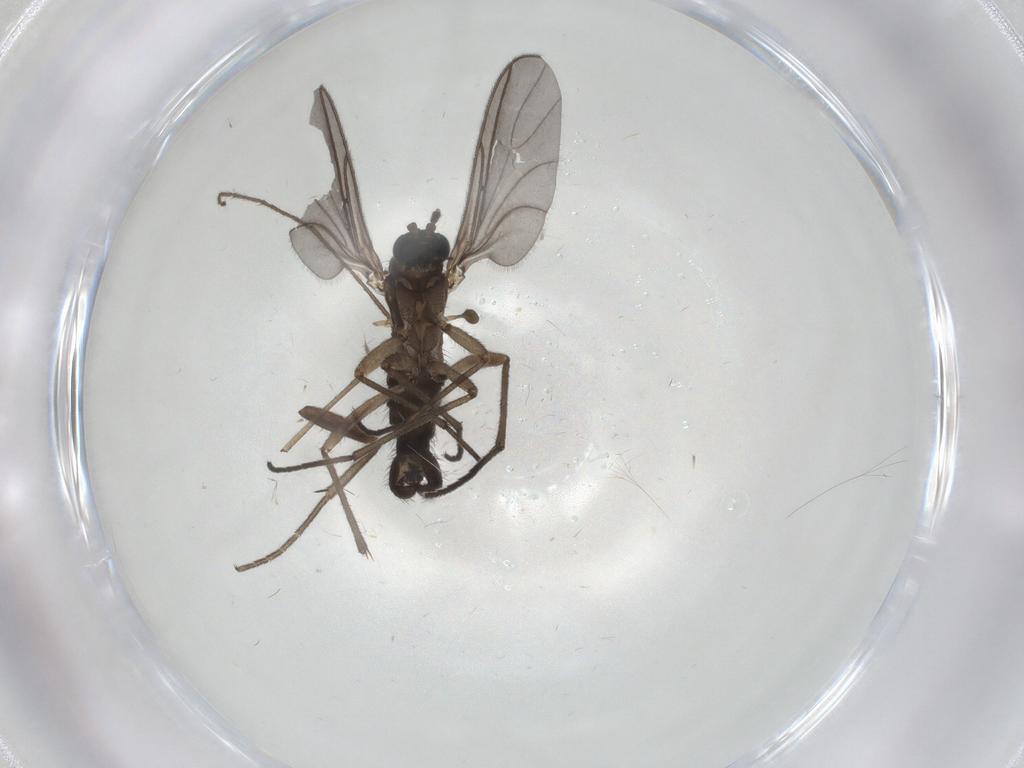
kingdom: Animalia
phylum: Arthropoda
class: Insecta
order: Diptera
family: Sciaridae
